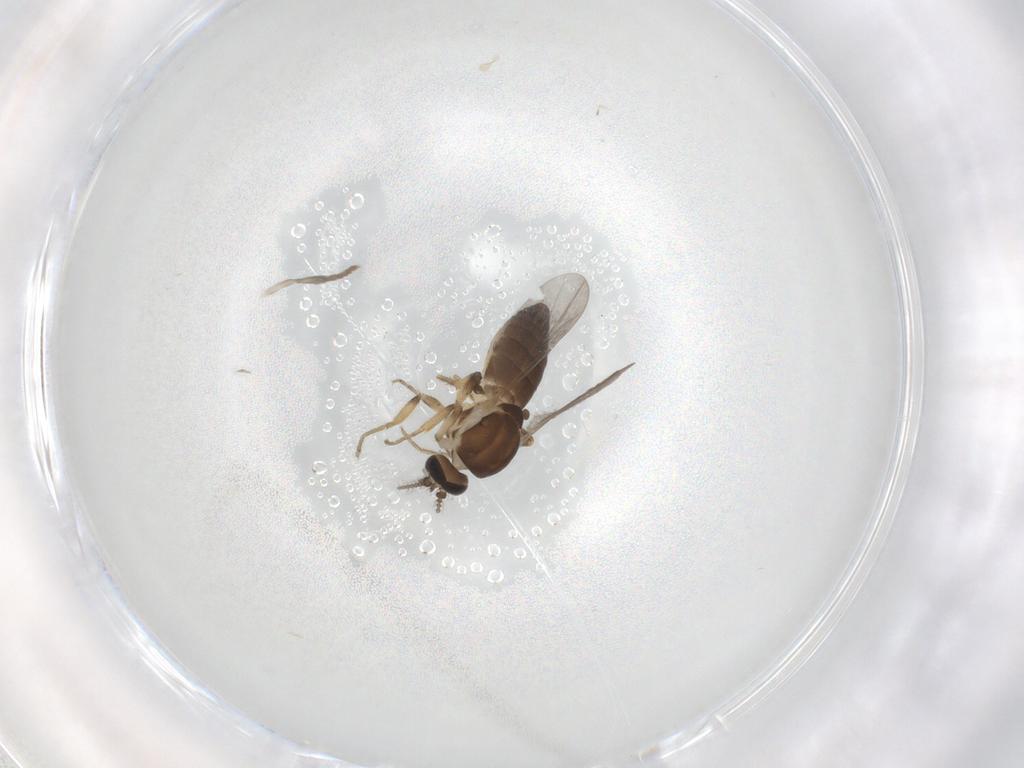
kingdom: Animalia
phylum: Arthropoda
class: Insecta
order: Diptera
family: Ceratopogonidae
